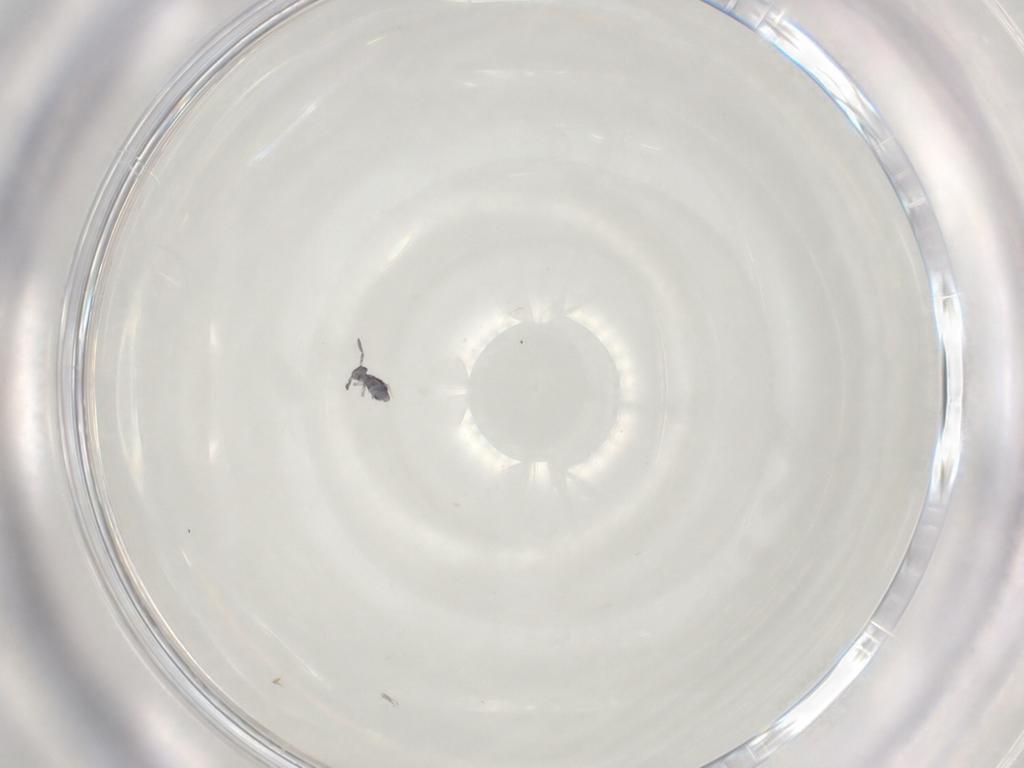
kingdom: Animalia
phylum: Arthropoda
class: Collembola
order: Symphypleona
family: Katiannidae
